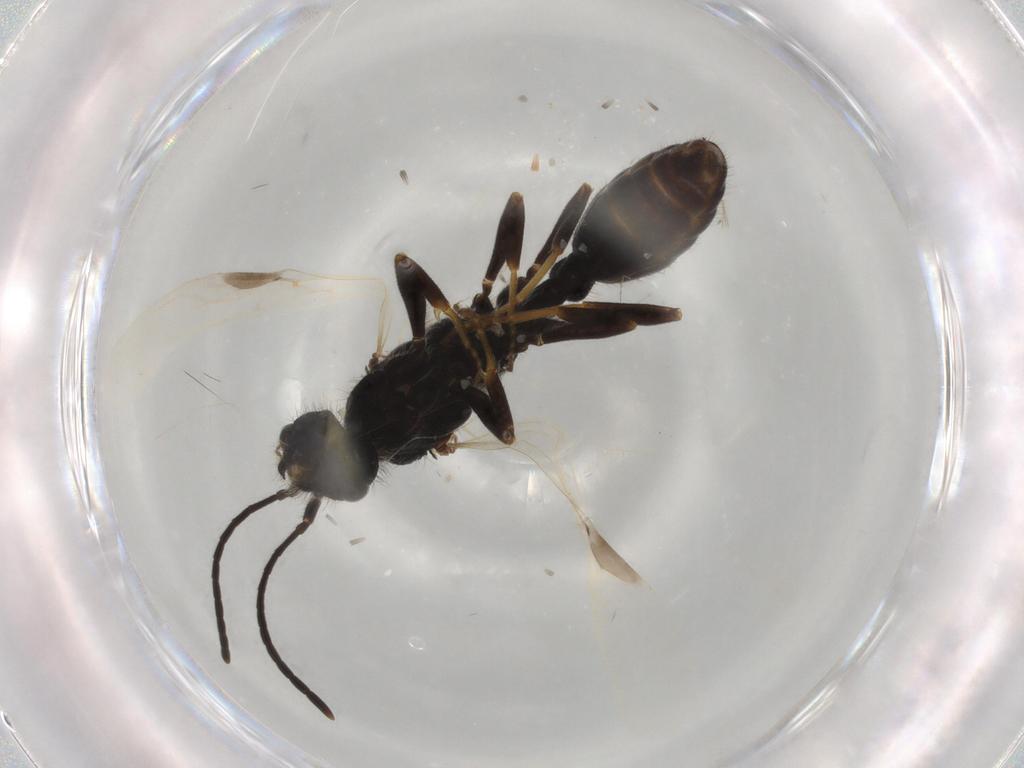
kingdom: Animalia
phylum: Arthropoda
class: Insecta
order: Hymenoptera
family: Formicidae
